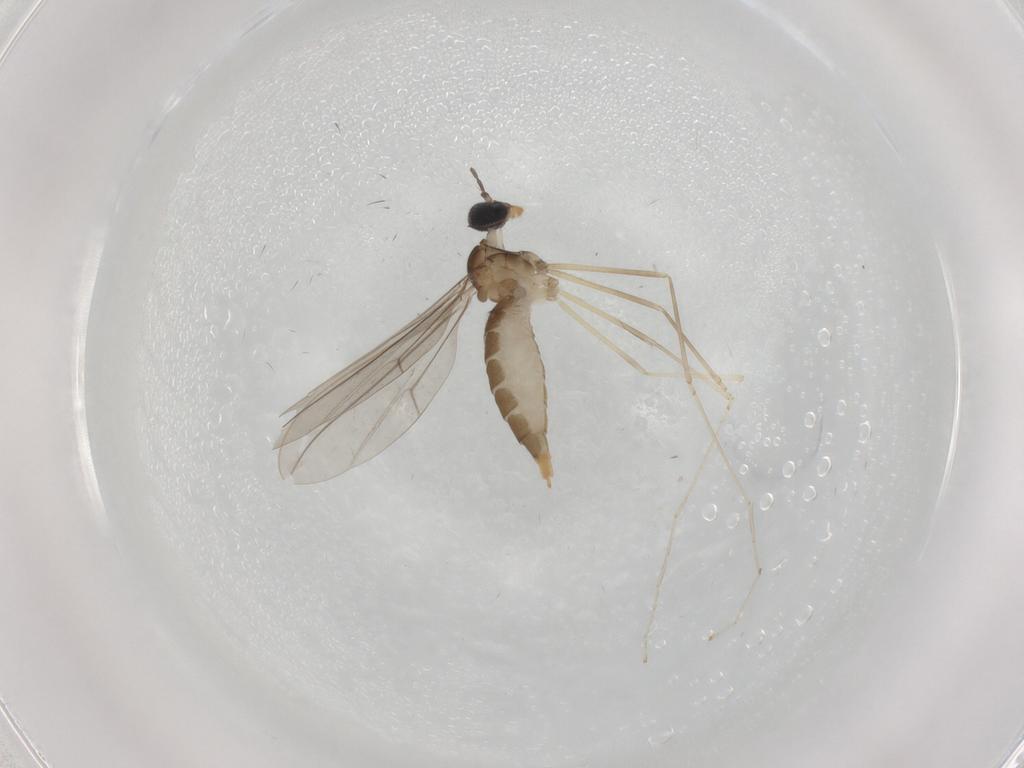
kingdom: Animalia
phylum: Arthropoda
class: Insecta
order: Diptera
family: Cecidomyiidae
